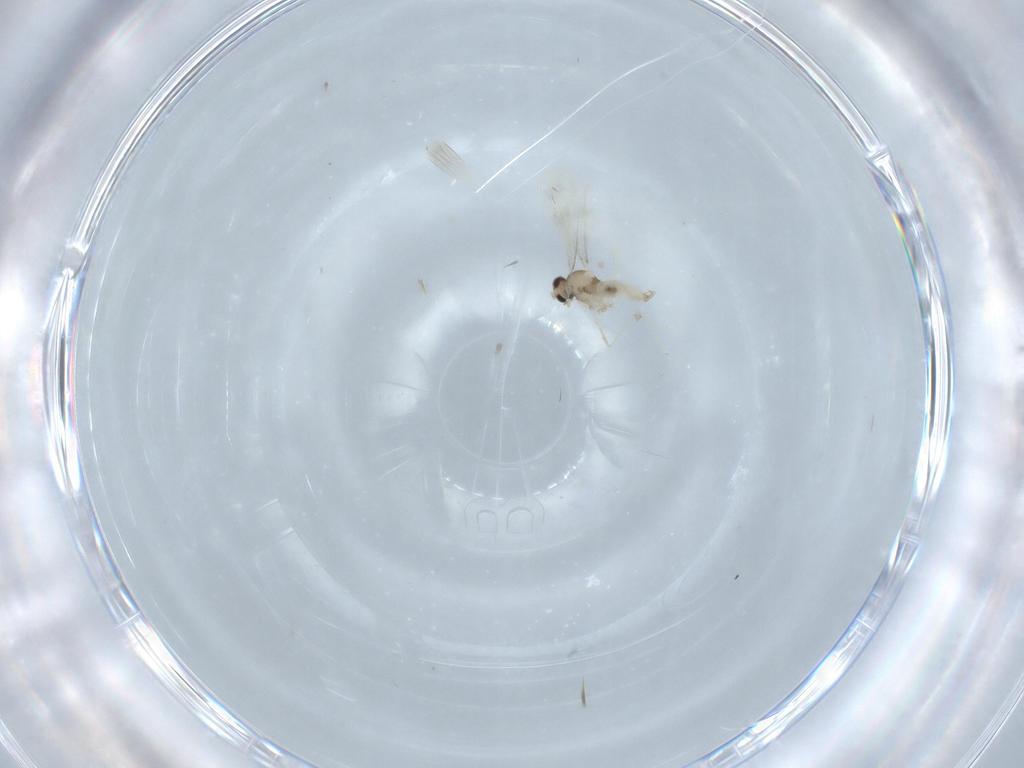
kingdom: Animalia
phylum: Arthropoda
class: Insecta
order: Diptera
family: Cecidomyiidae
